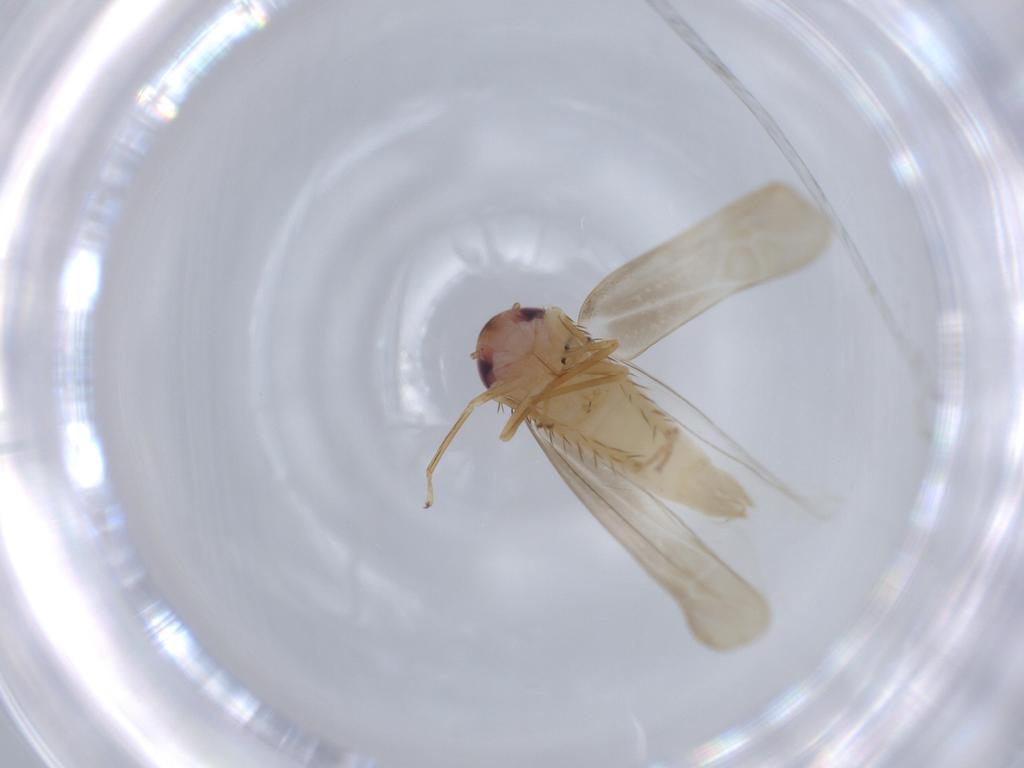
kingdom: Animalia
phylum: Arthropoda
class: Insecta
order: Hemiptera
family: Cicadellidae
